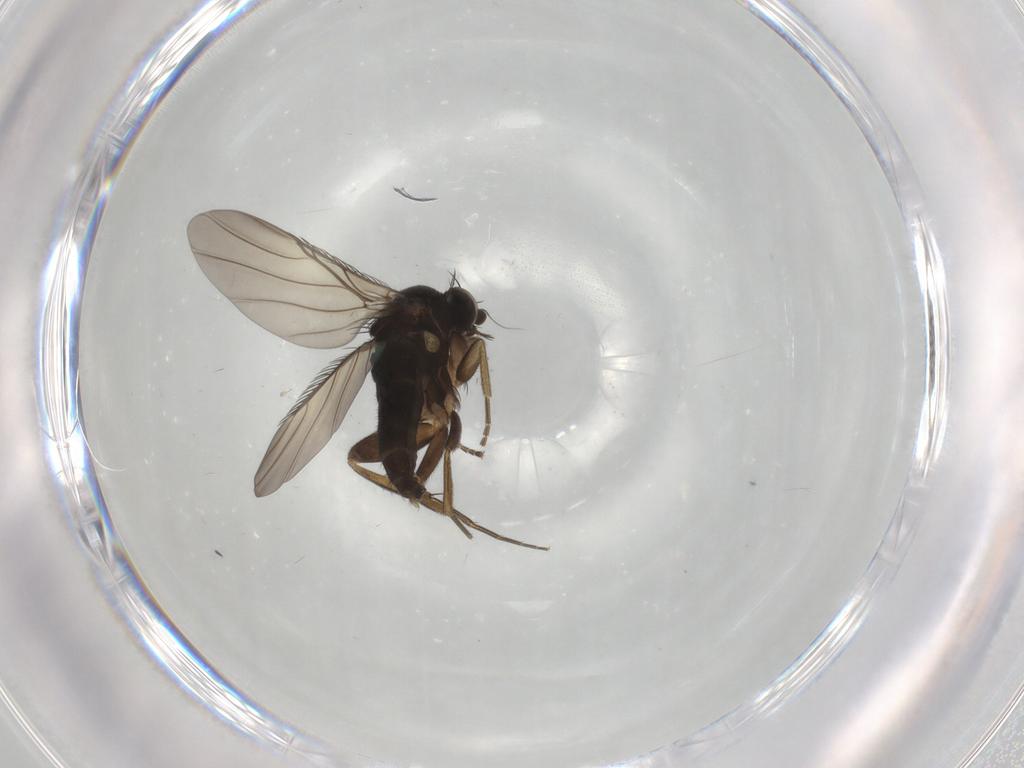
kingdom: Animalia
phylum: Arthropoda
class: Insecta
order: Diptera
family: Phoridae
